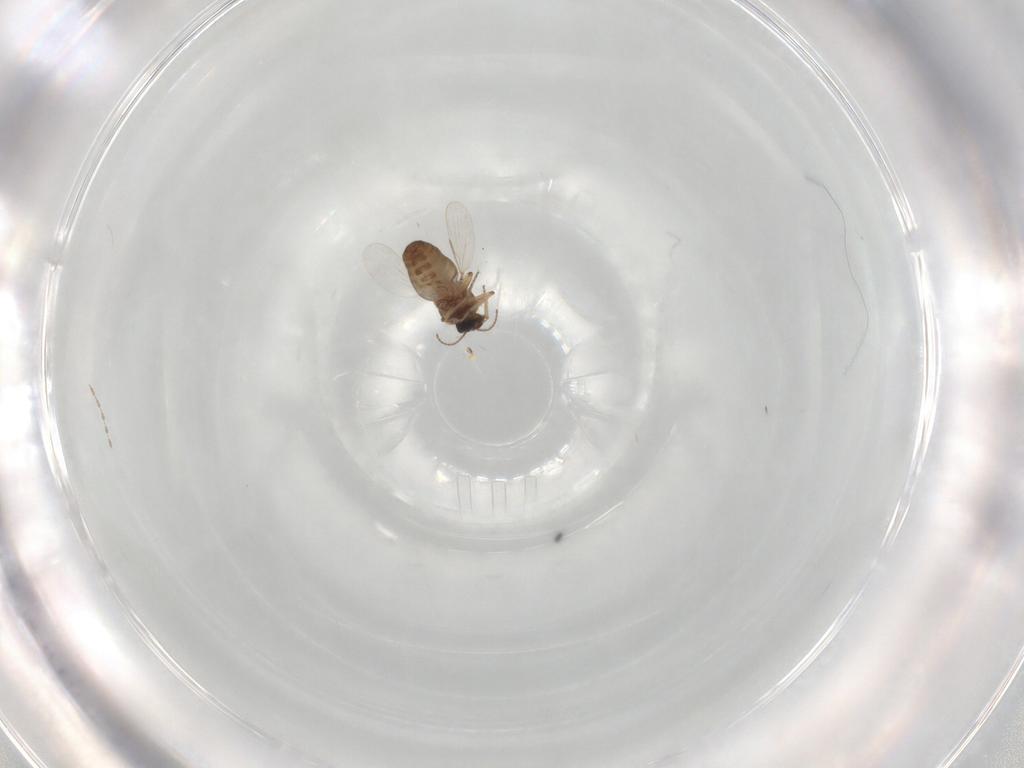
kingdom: Animalia
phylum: Arthropoda
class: Insecta
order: Diptera
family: Ceratopogonidae
